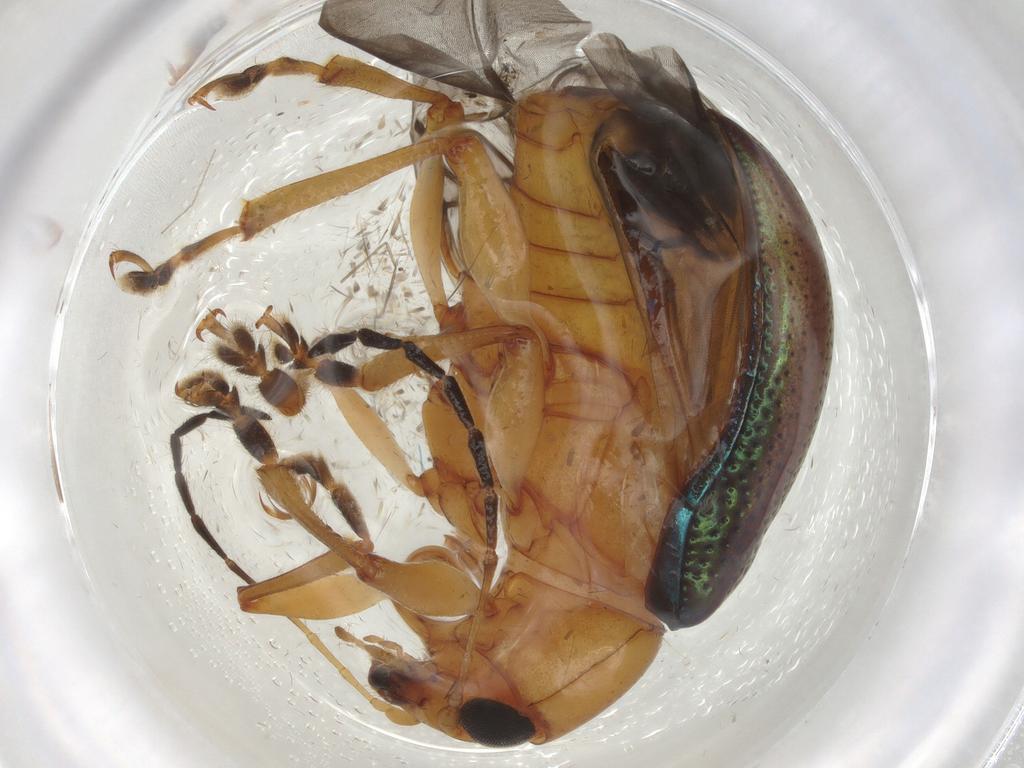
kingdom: Animalia
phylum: Arthropoda
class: Insecta
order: Coleoptera
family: Chrysomelidae
